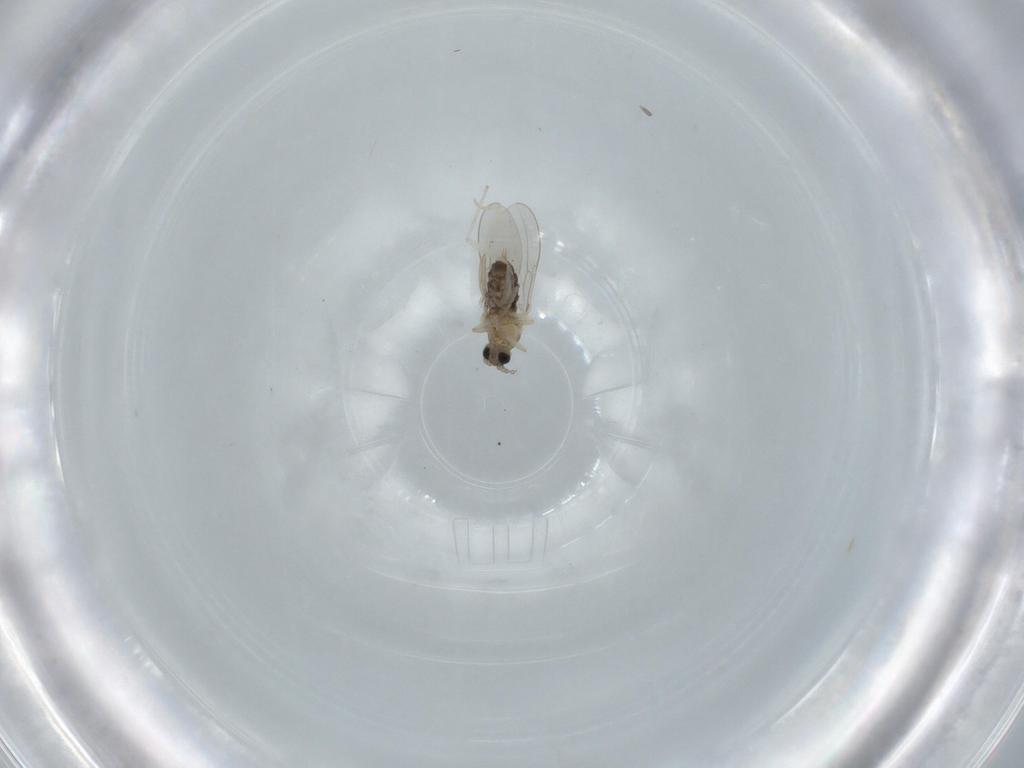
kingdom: Animalia
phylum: Arthropoda
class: Insecta
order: Diptera
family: Cecidomyiidae
